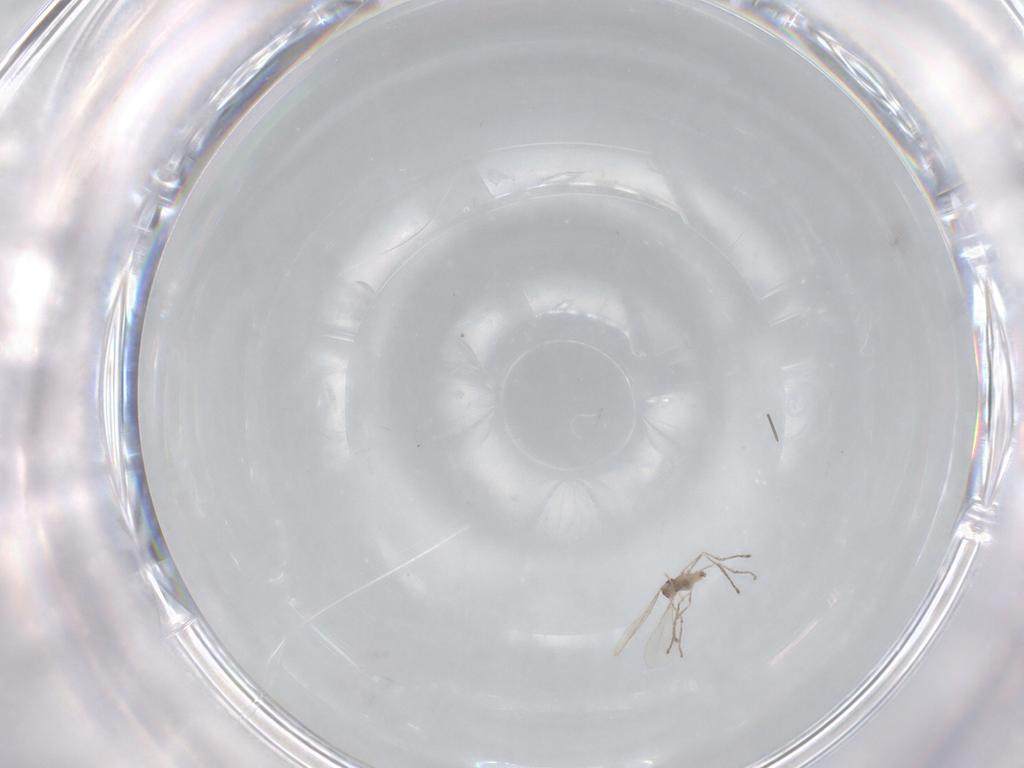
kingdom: Animalia
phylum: Arthropoda
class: Insecta
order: Diptera
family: Cecidomyiidae
